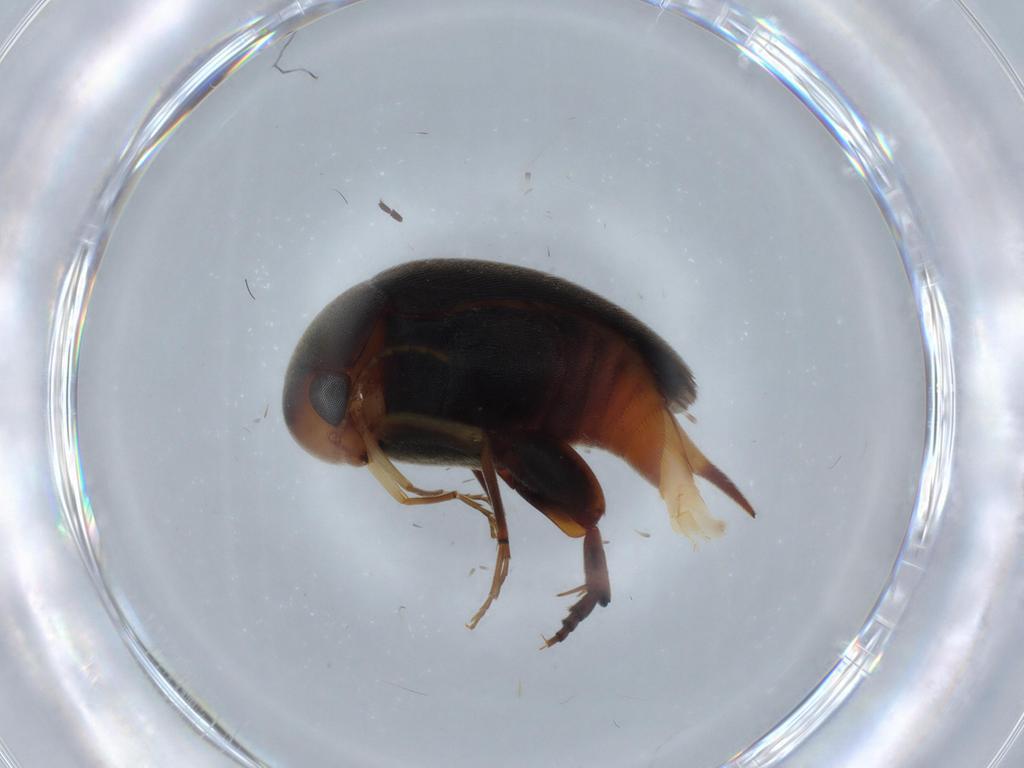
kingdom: Animalia
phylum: Arthropoda
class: Insecta
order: Coleoptera
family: Mordellidae
